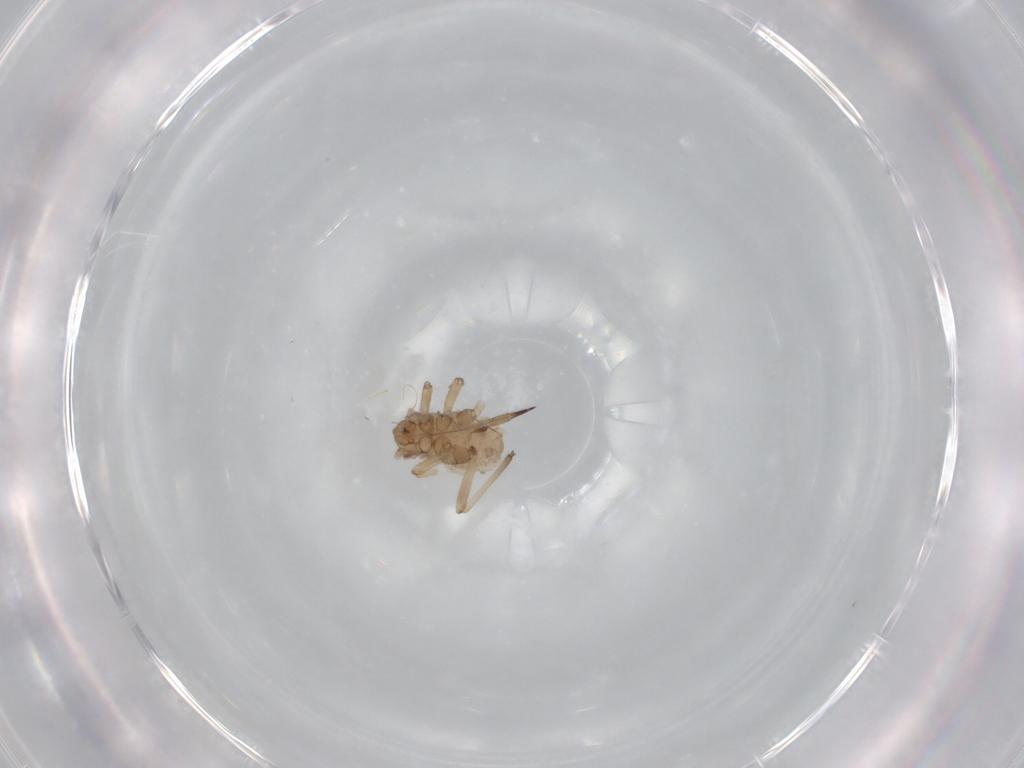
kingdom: Animalia
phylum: Arthropoda
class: Insecta
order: Hemiptera
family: Aphididae
